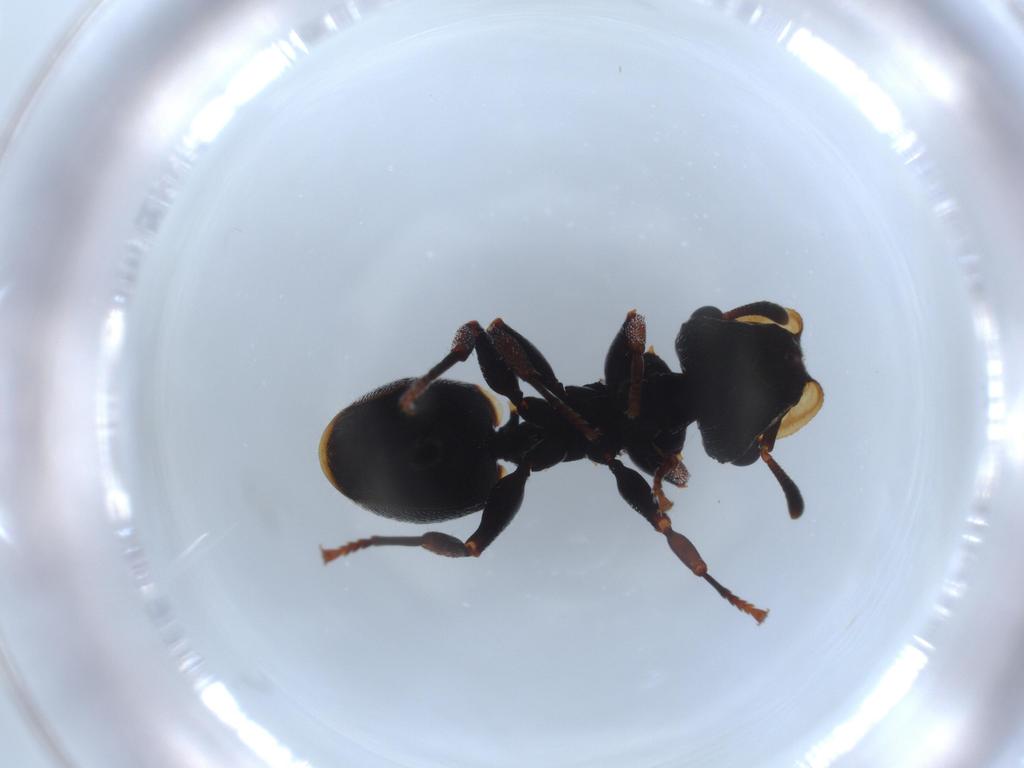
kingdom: Animalia
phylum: Arthropoda
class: Insecta
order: Hymenoptera
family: Formicidae
